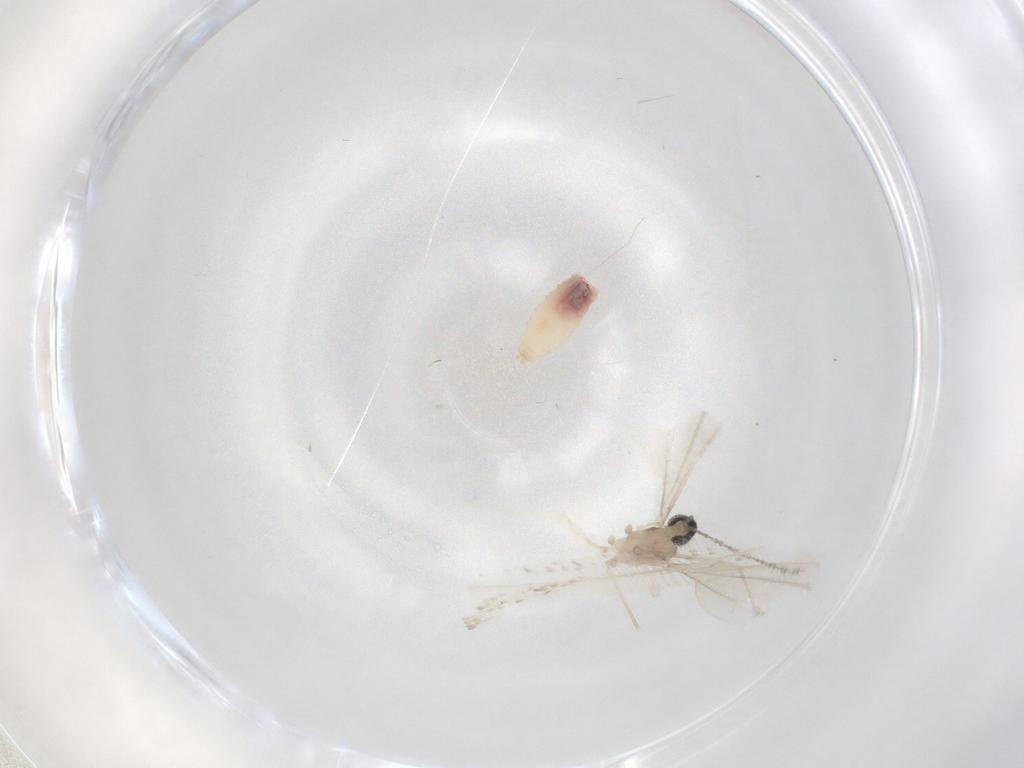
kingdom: Animalia
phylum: Arthropoda
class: Insecta
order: Diptera
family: Cecidomyiidae
